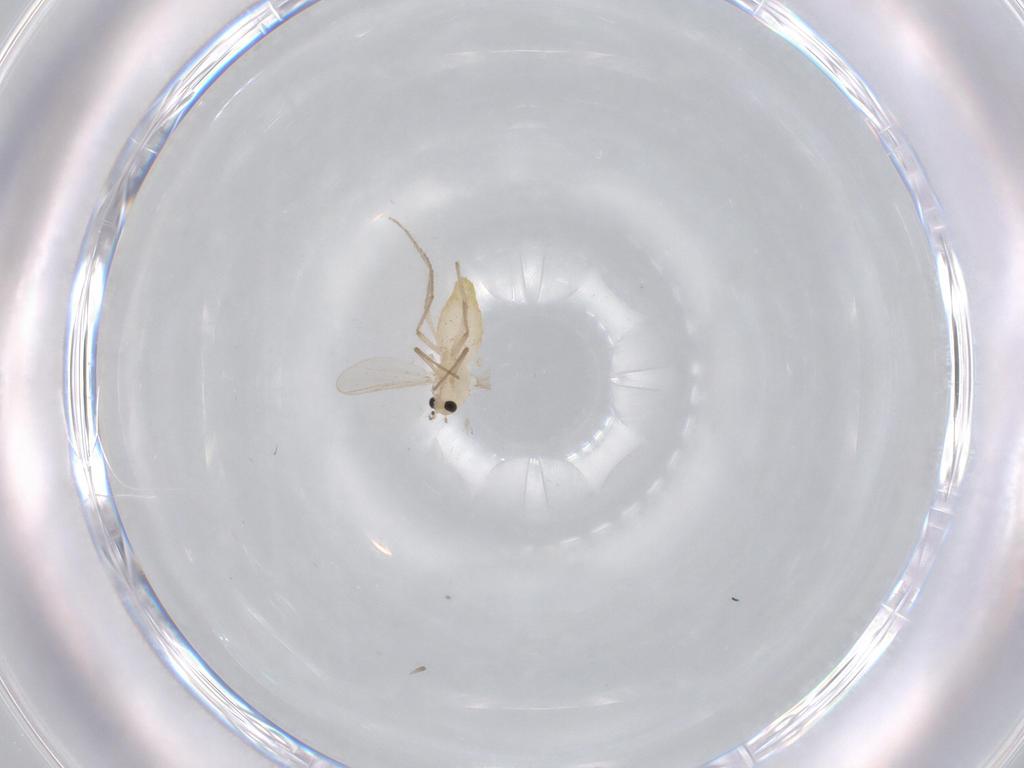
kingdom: Animalia
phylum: Arthropoda
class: Insecta
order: Diptera
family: Chironomidae
